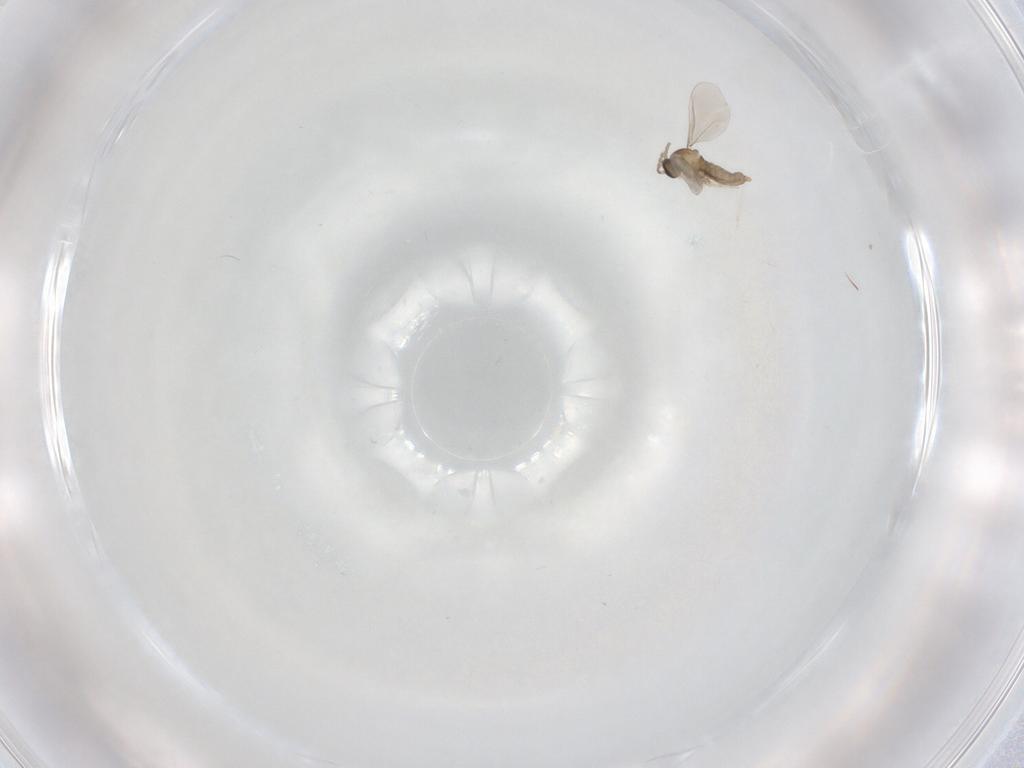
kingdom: Animalia
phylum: Arthropoda
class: Insecta
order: Diptera
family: Cecidomyiidae
